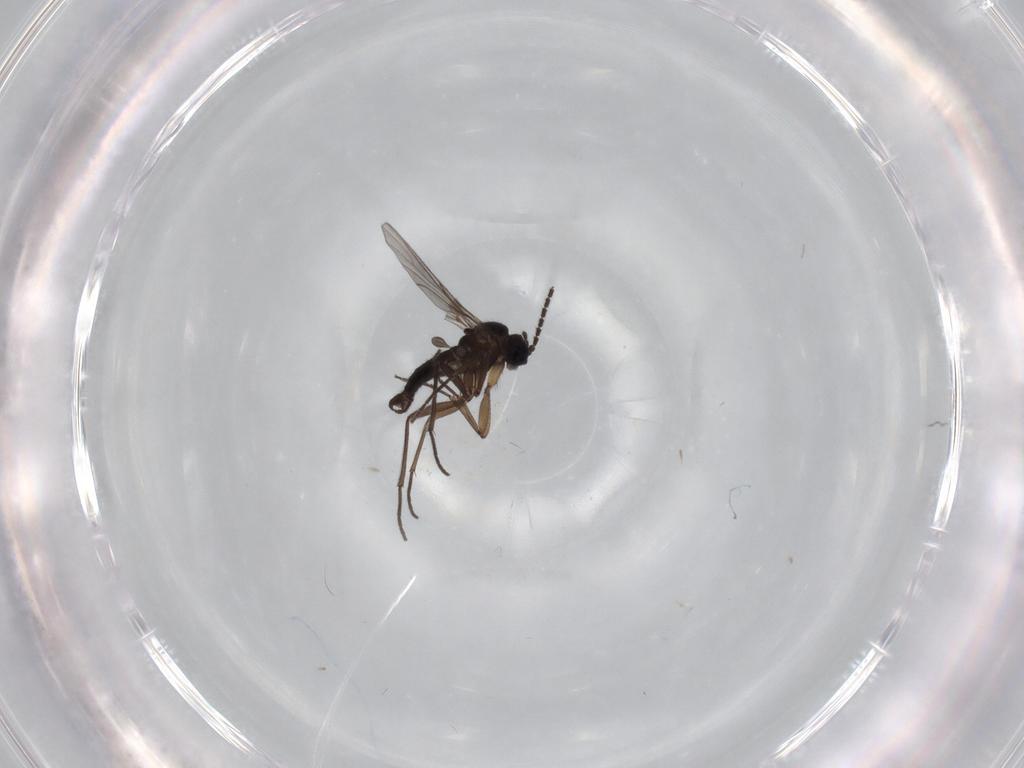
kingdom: Animalia
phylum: Arthropoda
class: Insecta
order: Diptera
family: Sciaridae
